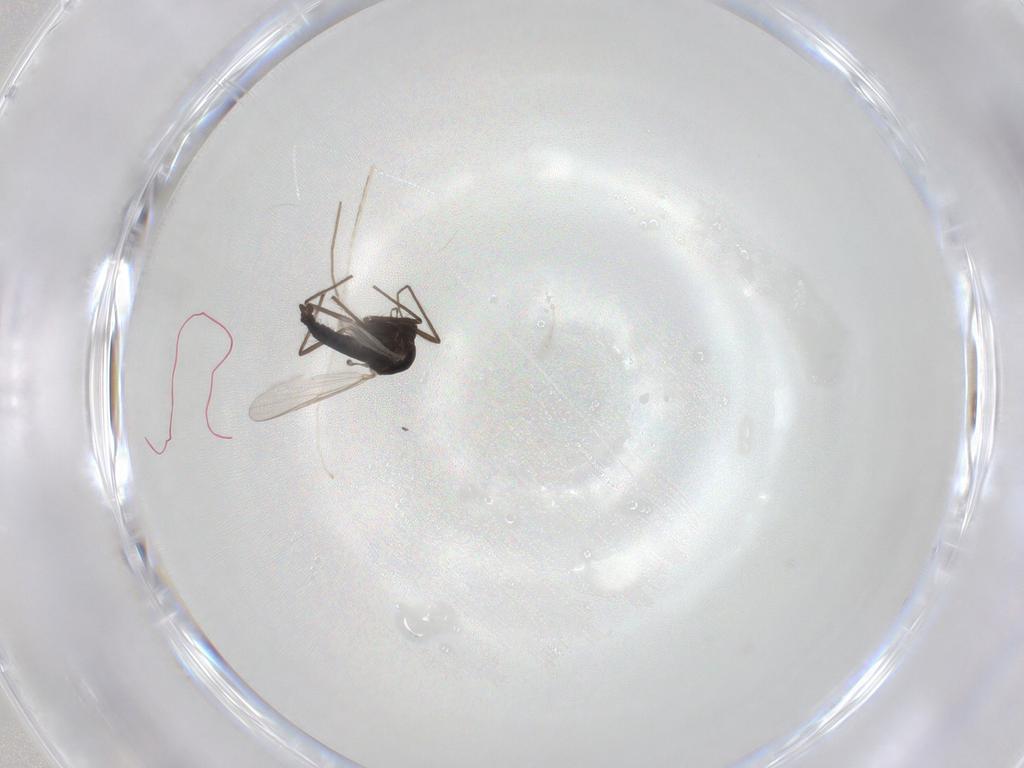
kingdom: Animalia
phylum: Arthropoda
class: Insecta
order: Diptera
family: Chironomidae
